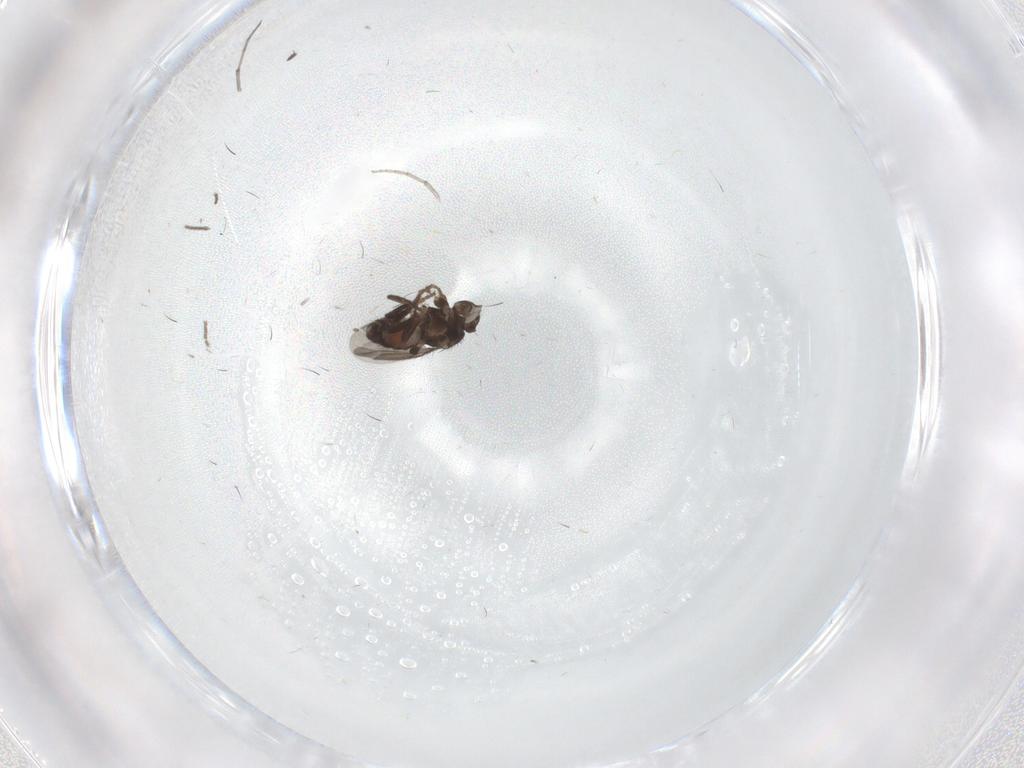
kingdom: Animalia
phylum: Arthropoda
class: Insecta
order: Diptera
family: Sphaeroceridae
